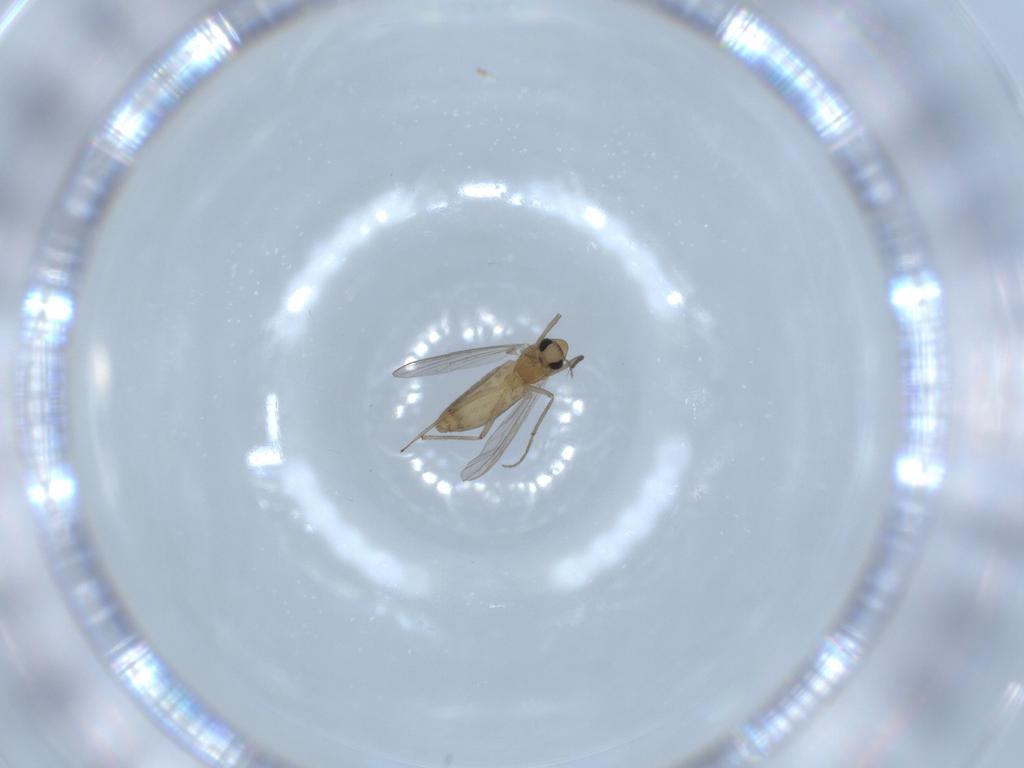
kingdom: Animalia
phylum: Arthropoda
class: Insecta
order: Diptera
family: Chironomidae
